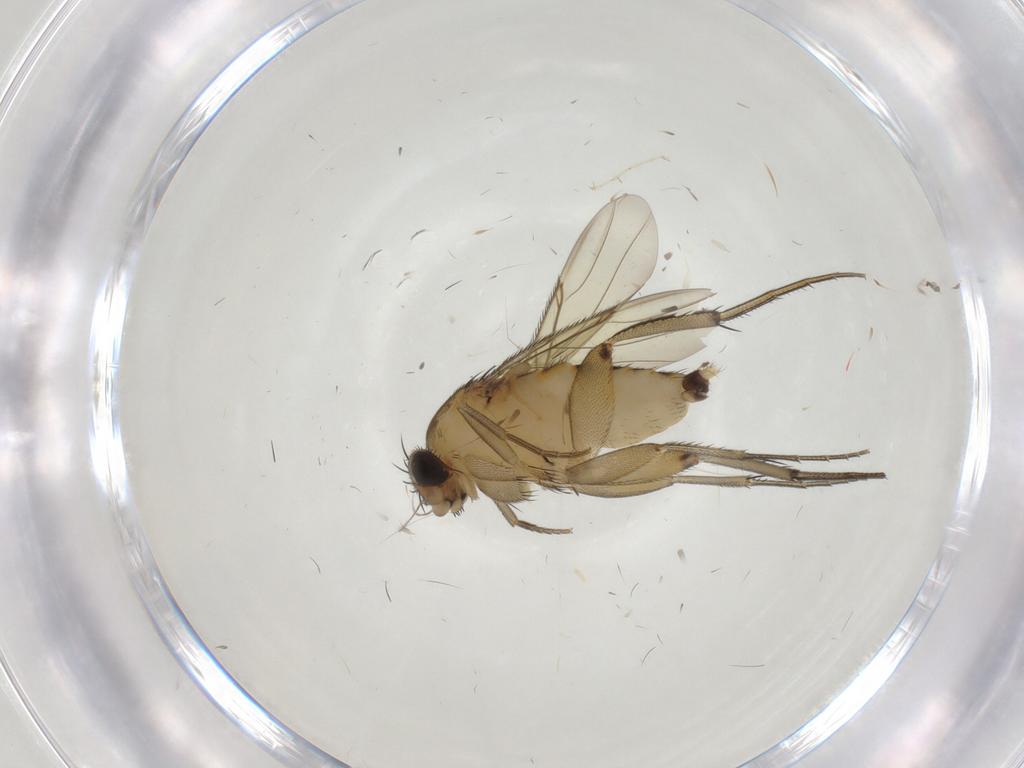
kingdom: Animalia
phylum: Arthropoda
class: Insecta
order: Diptera
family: Phoridae
